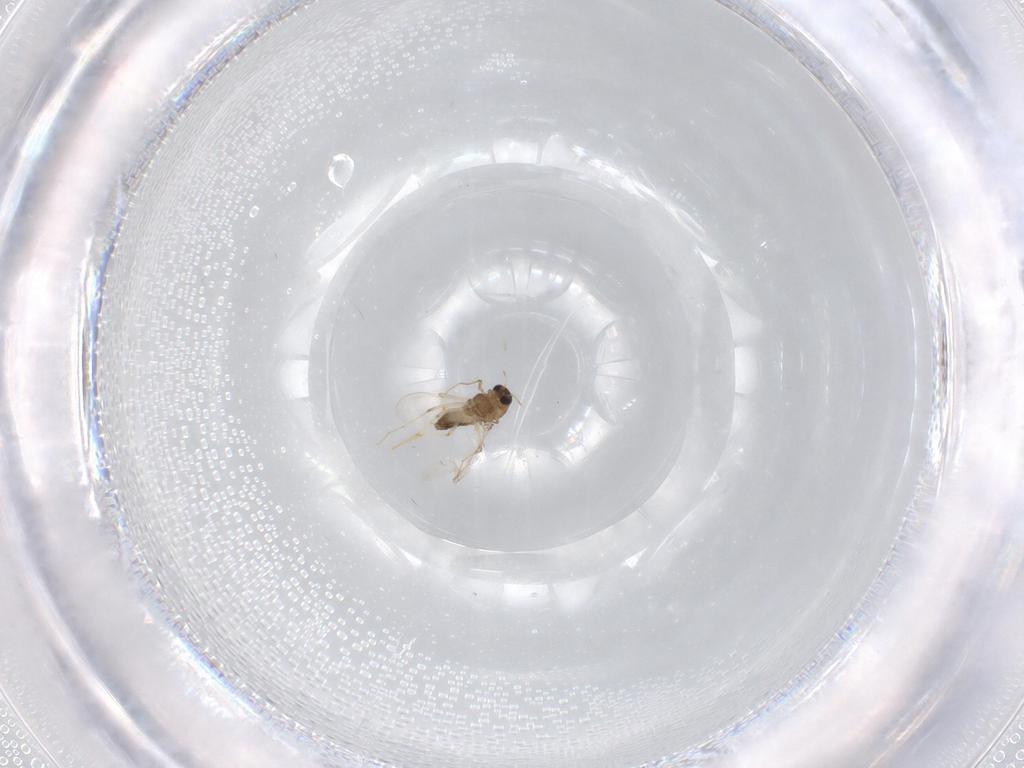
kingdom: Animalia
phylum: Arthropoda
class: Insecta
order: Diptera
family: Chironomidae
